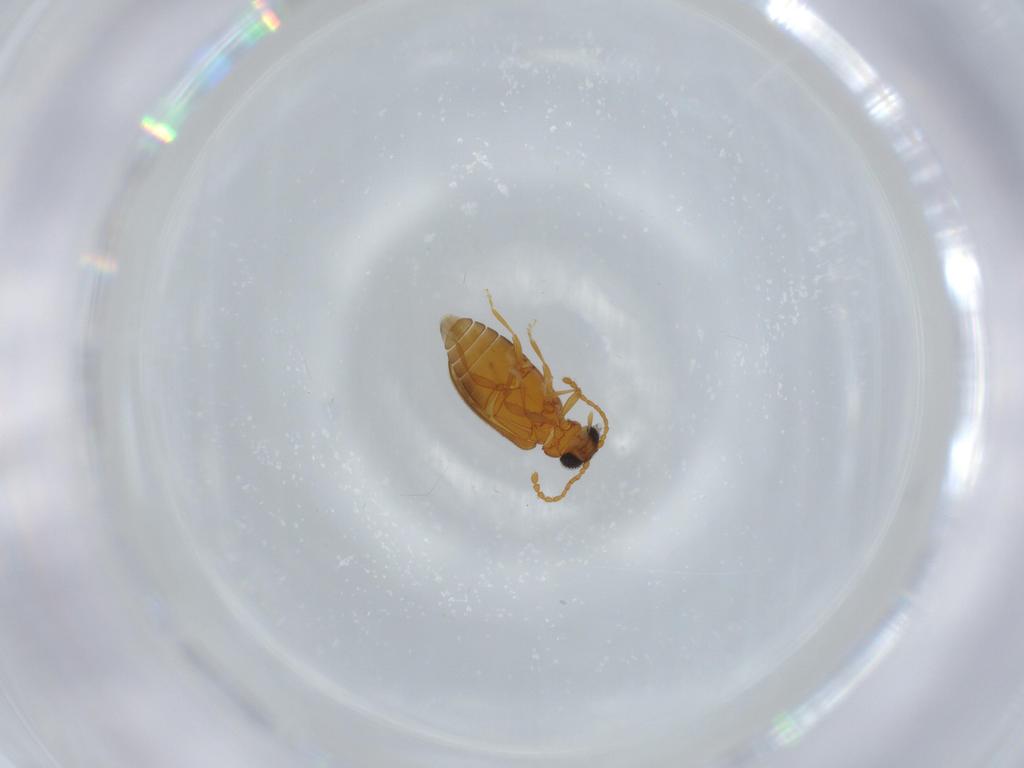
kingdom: Animalia
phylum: Arthropoda
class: Insecta
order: Coleoptera
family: Aderidae
